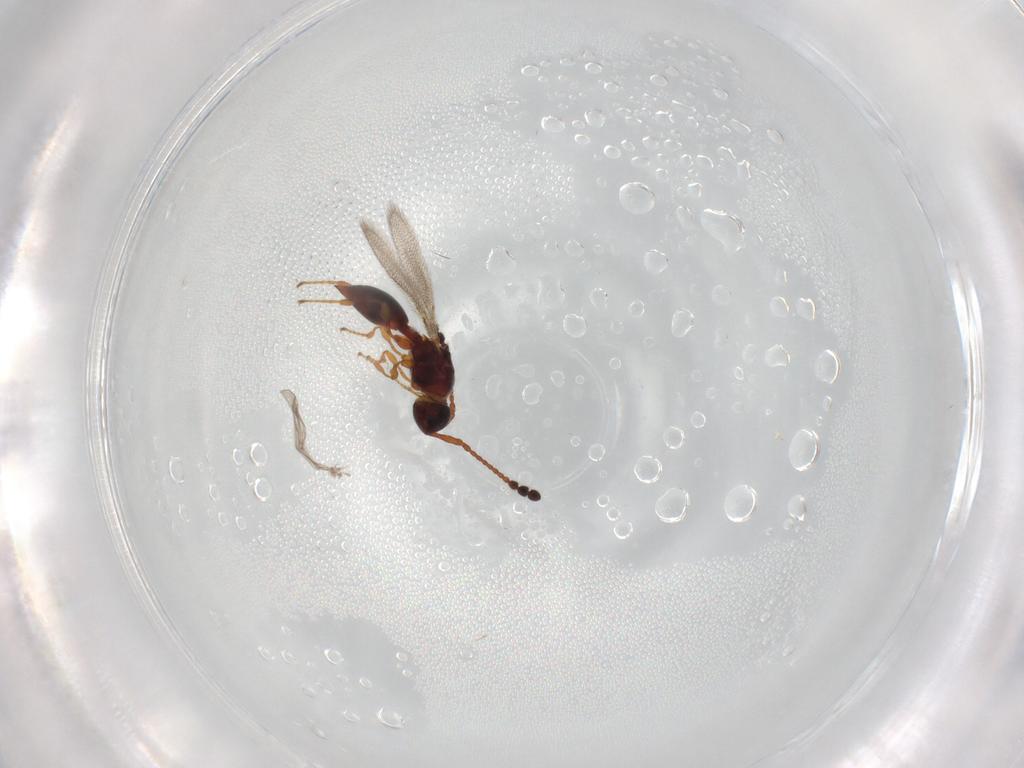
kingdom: Animalia
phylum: Arthropoda
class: Insecta
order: Hymenoptera
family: Diapriidae
